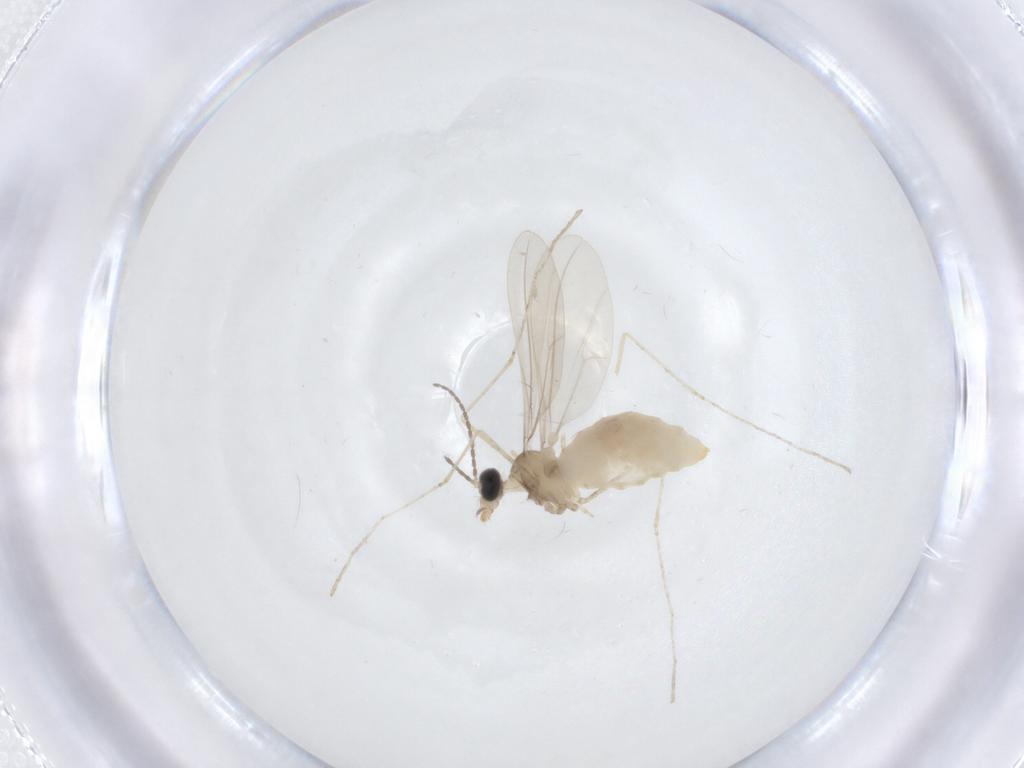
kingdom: Animalia
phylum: Arthropoda
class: Insecta
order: Diptera
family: Cecidomyiidae
